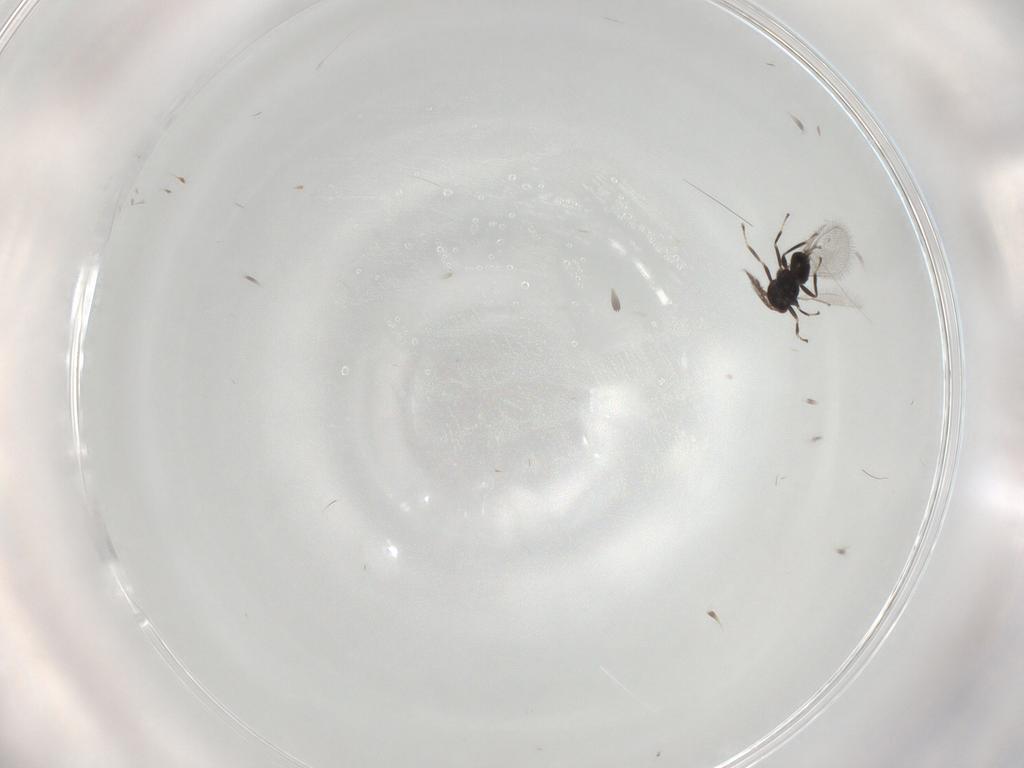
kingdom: Animalia
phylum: Arthropoda
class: Insecta
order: Hymenoptera
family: Eulophidae
